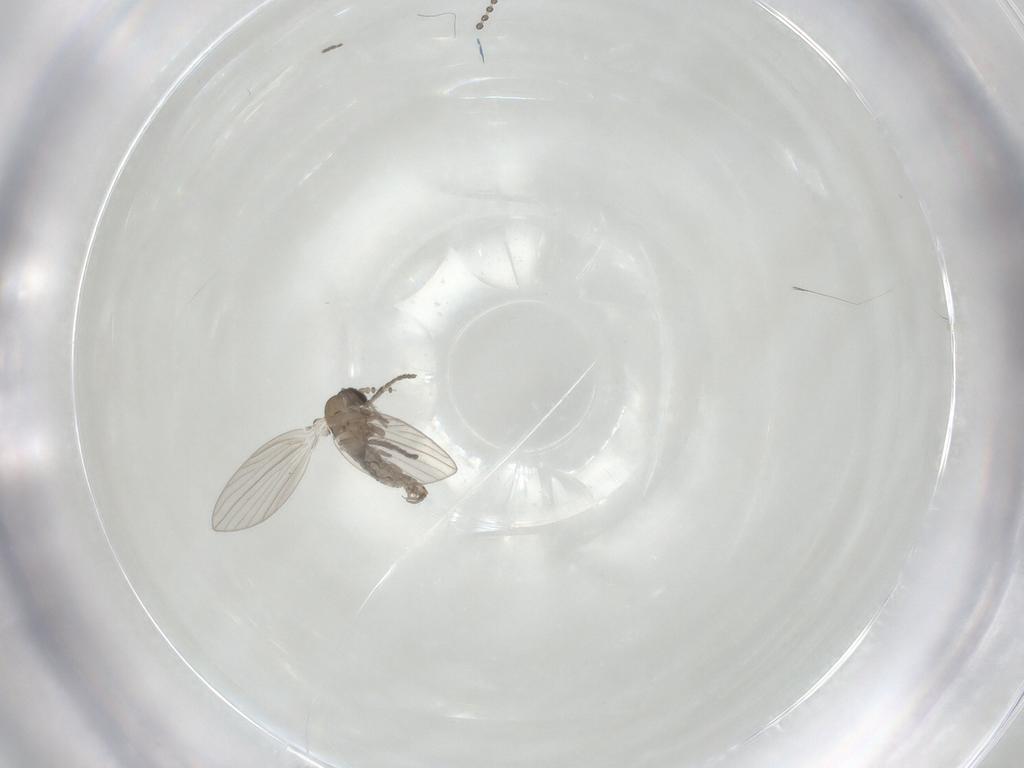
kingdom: Animalia
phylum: Arthropoda
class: Insecta
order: Diptera
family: Psychodidae
